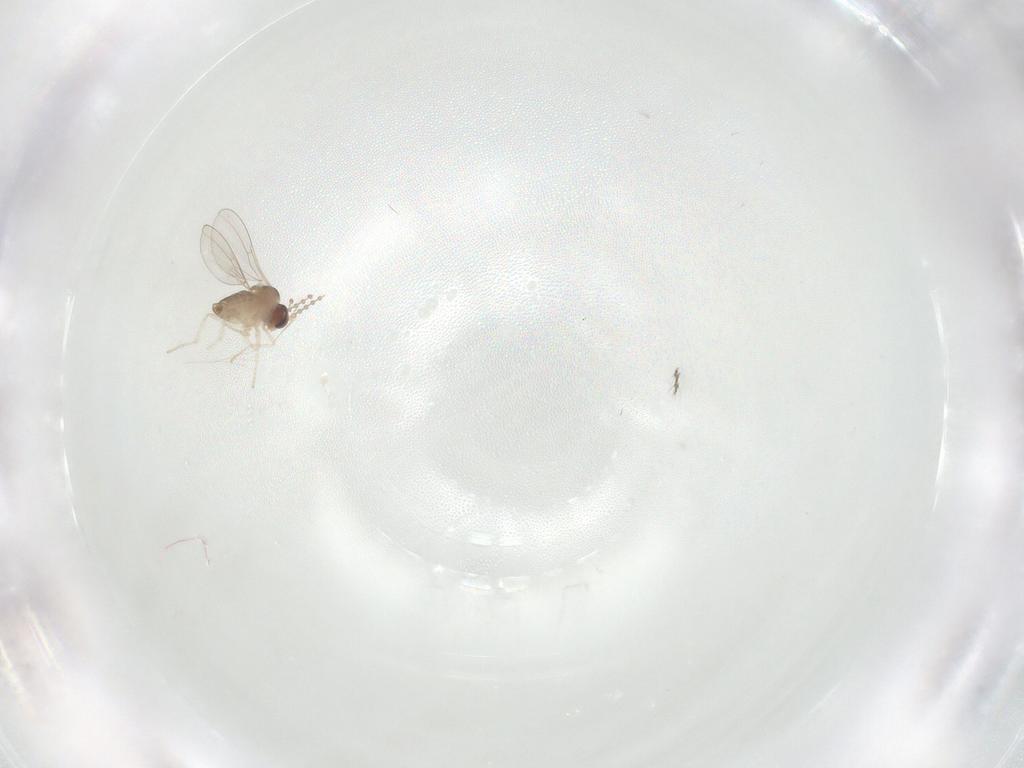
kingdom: Animalia
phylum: Arthropoda
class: Insecta
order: Diptera
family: Cecidomyiidae
